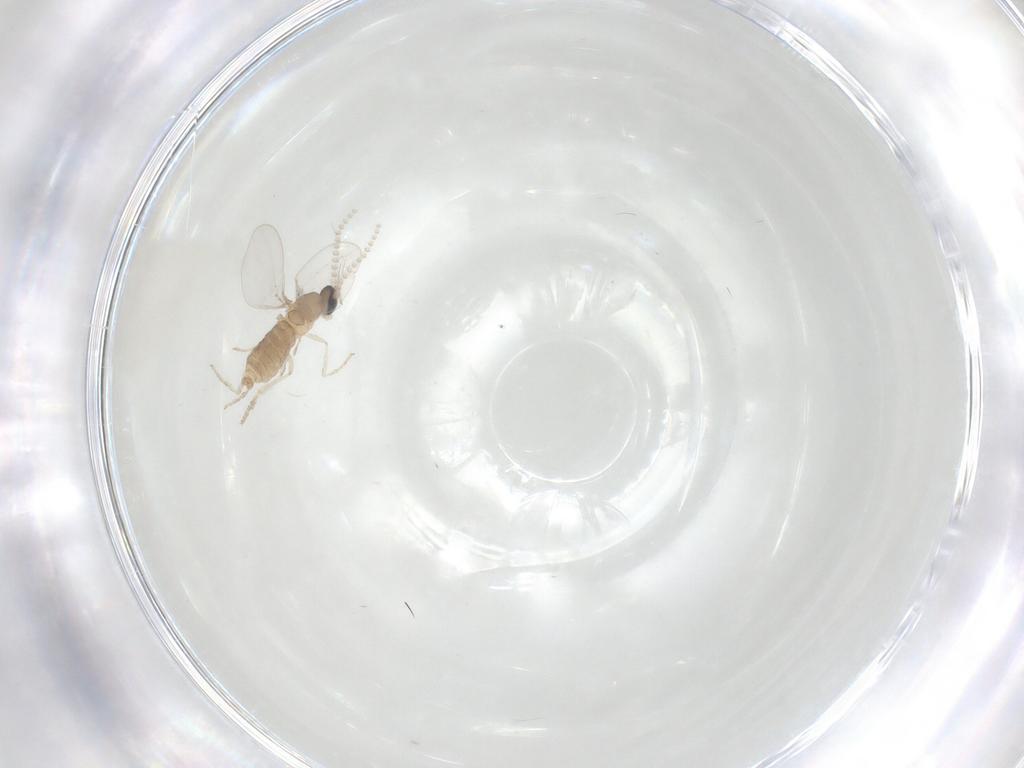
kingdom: Animalia
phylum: Arthropoda
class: Insecta
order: Diptera
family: Cecidomyiidae
